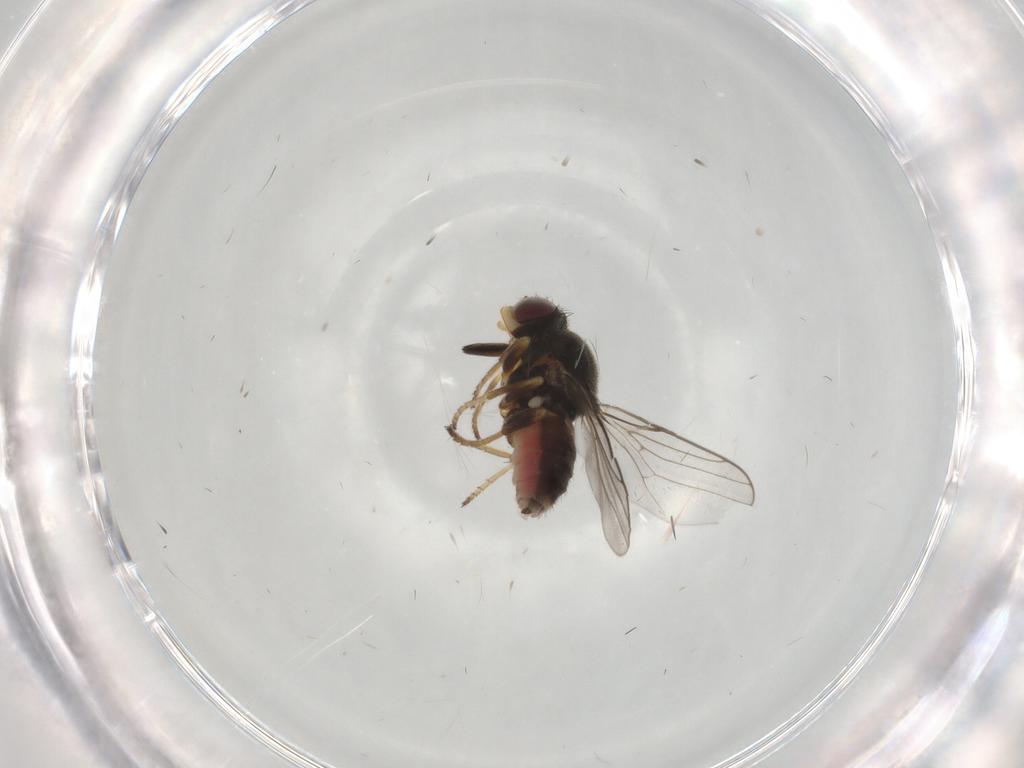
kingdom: Animalia
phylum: Arthropoda
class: Insecta
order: Diptera
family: Chloropidae
